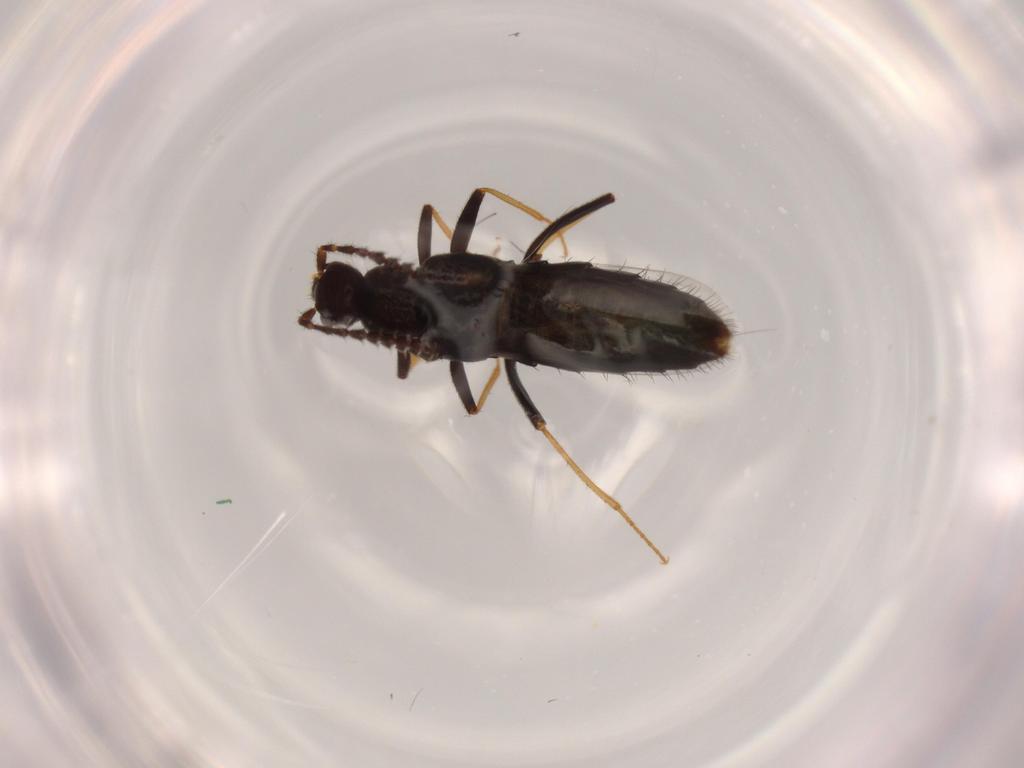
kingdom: Animalia
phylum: Arthropoda
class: Insecta
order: Coleoptera
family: Staphylinidae
